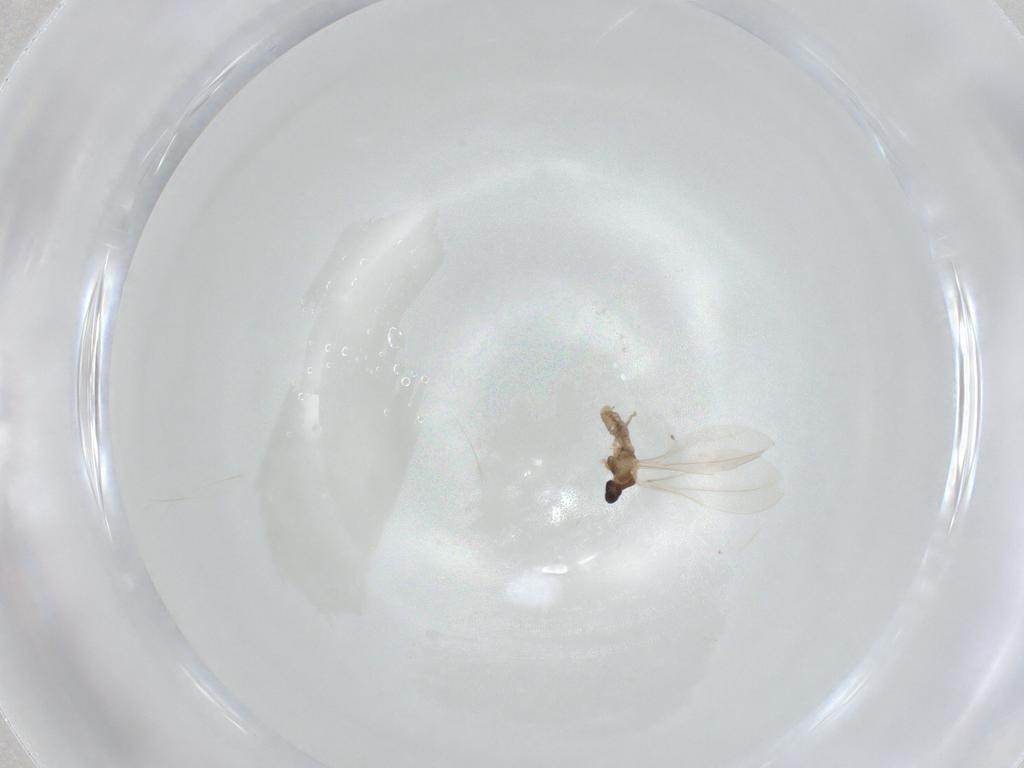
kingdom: Animalia
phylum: Arthropoda
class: Insecta
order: Diptera
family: Cecidomyiidae
